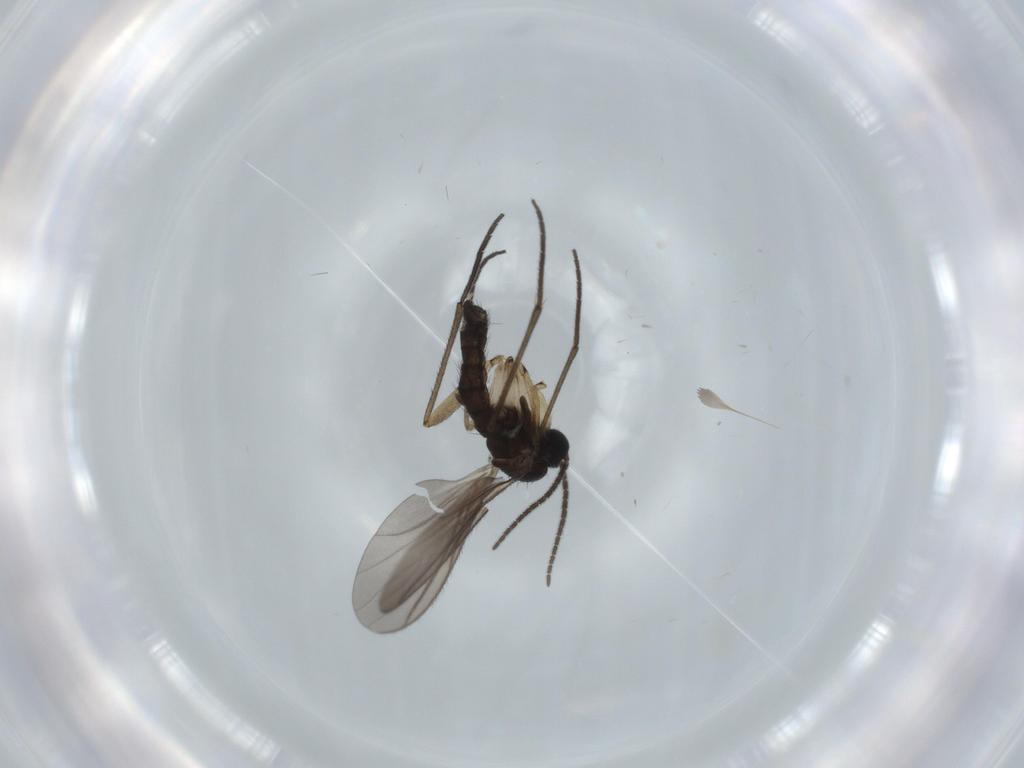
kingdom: Animalia
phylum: Arthropoda
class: Insecta
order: Diptera
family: Sciaridae
